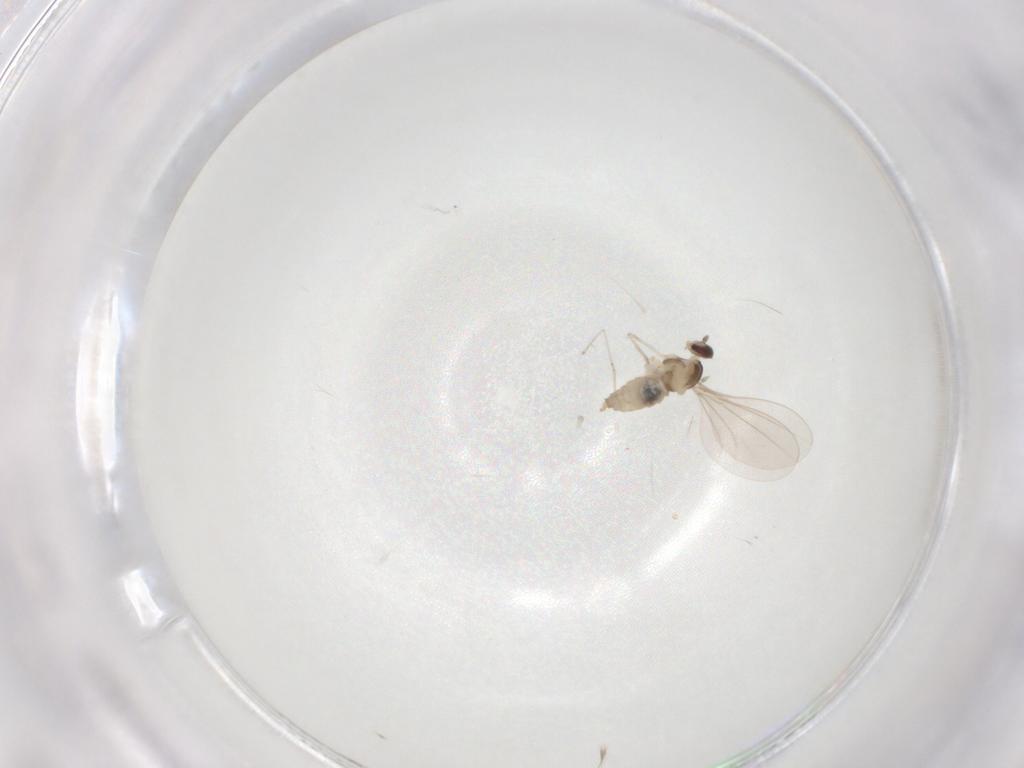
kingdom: Animalia
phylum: Arthropoda
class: Insecta
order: Diptera
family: Cecidomyiidae
